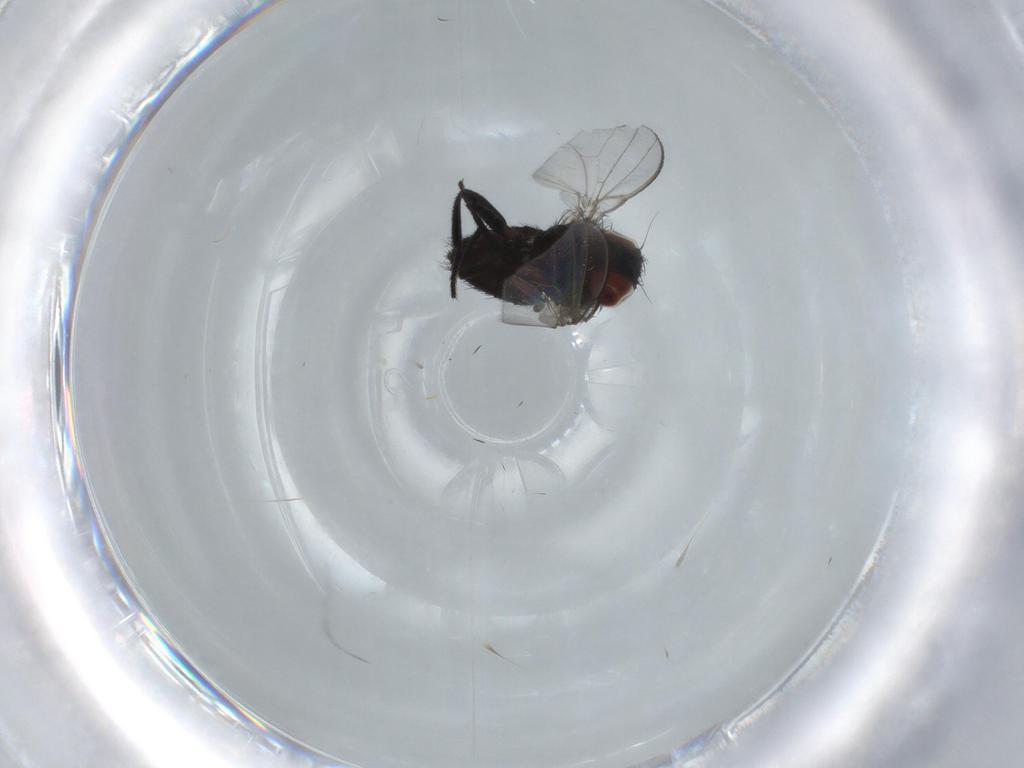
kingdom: Animalia
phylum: Arthropoda
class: Insecta
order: Diptera
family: Milichiidae
